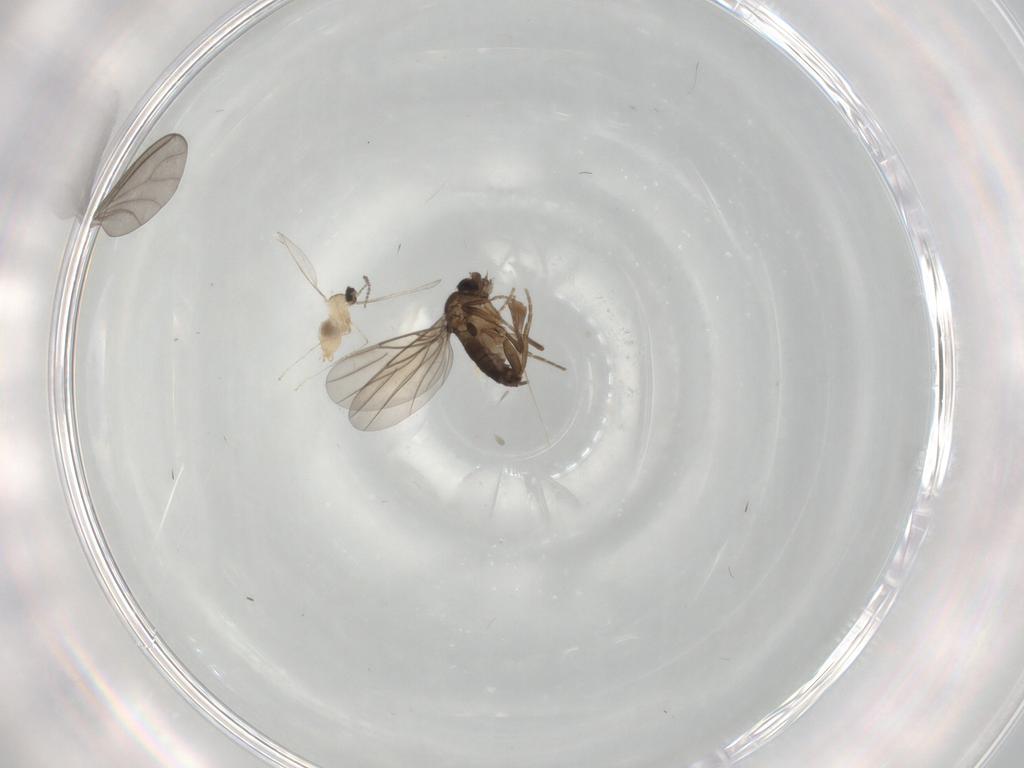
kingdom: Animalia
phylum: Arthropoda
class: Insecta
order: Diptera
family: Cecidomyiidae
